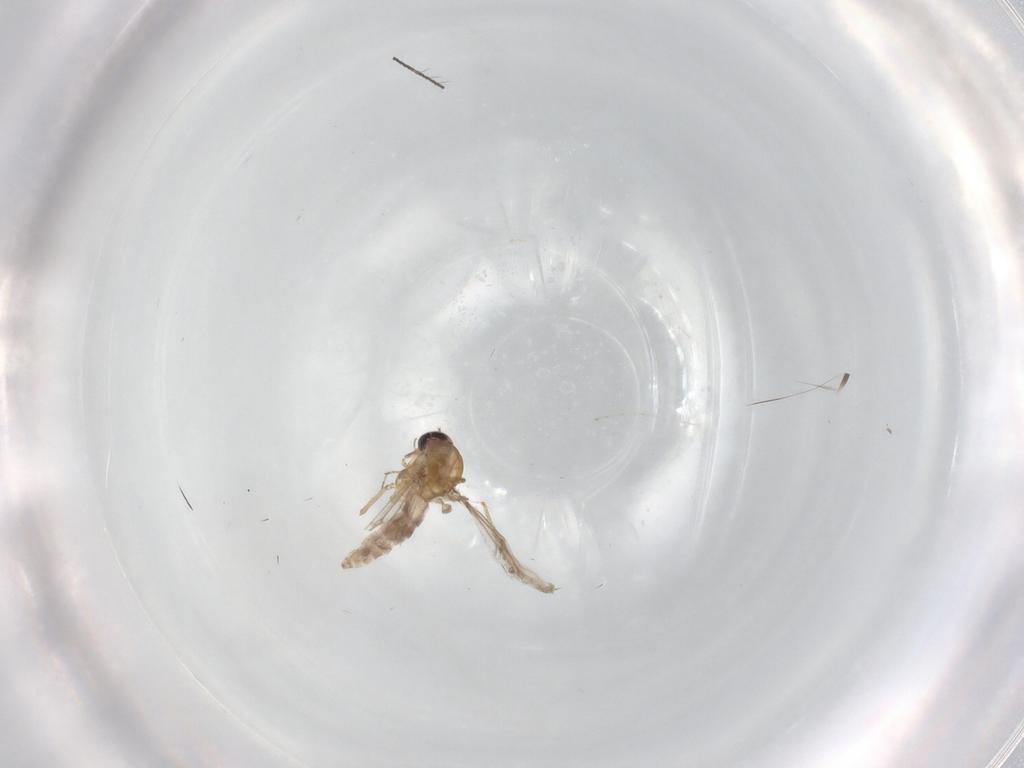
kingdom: Animalia
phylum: Arthropoda
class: Insecta
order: Diptera
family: Cecidomyiidae
